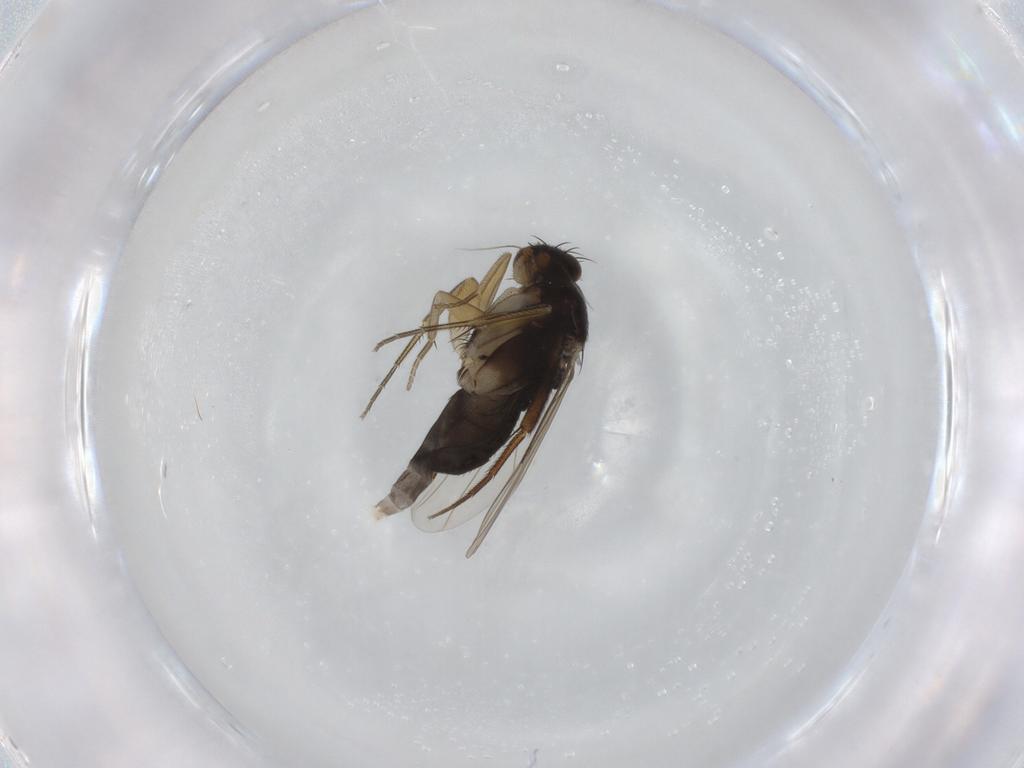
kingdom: Animalia
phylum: Arthropoda
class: Insecta
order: Diptera
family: Phoridae
